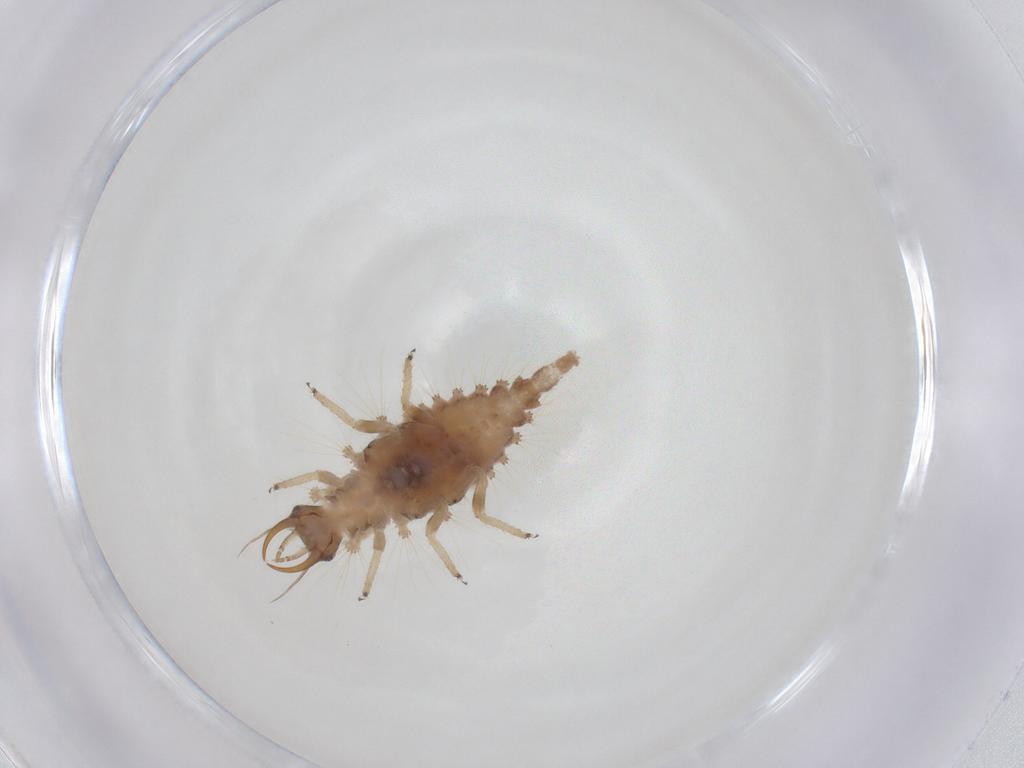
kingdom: Animalia
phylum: Arthropoda
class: Insecta
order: Neuroptera
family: Chrysopidae
